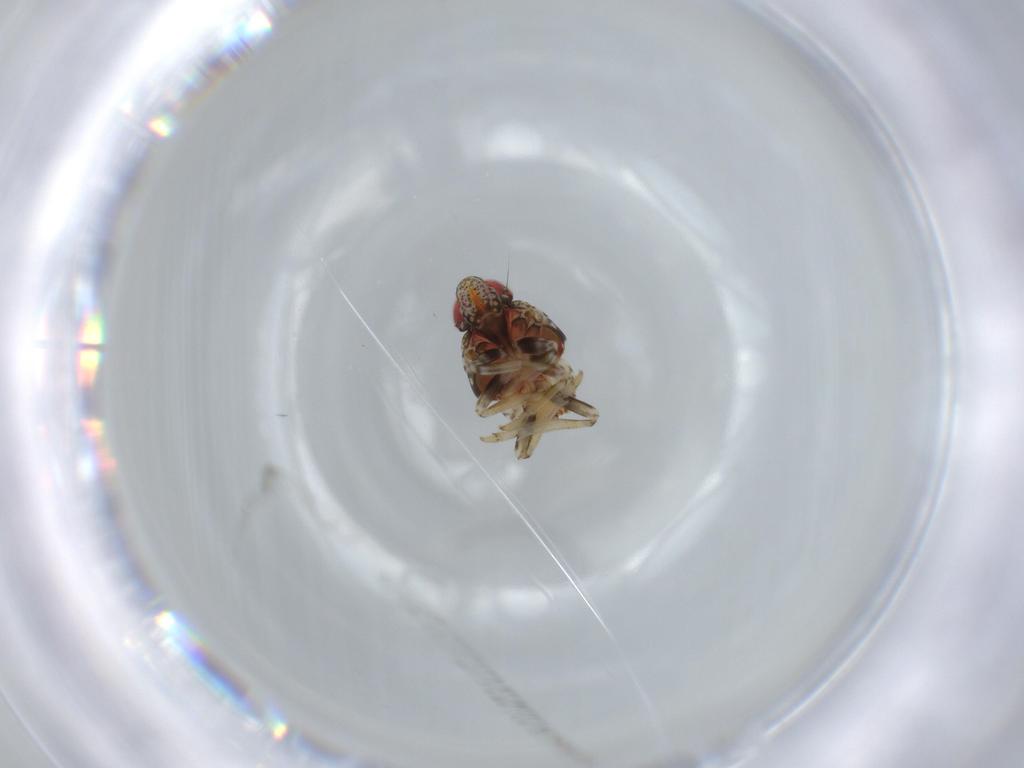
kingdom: Animalia
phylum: Arthropoda
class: Insecta
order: Hemiptera
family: Issidae
